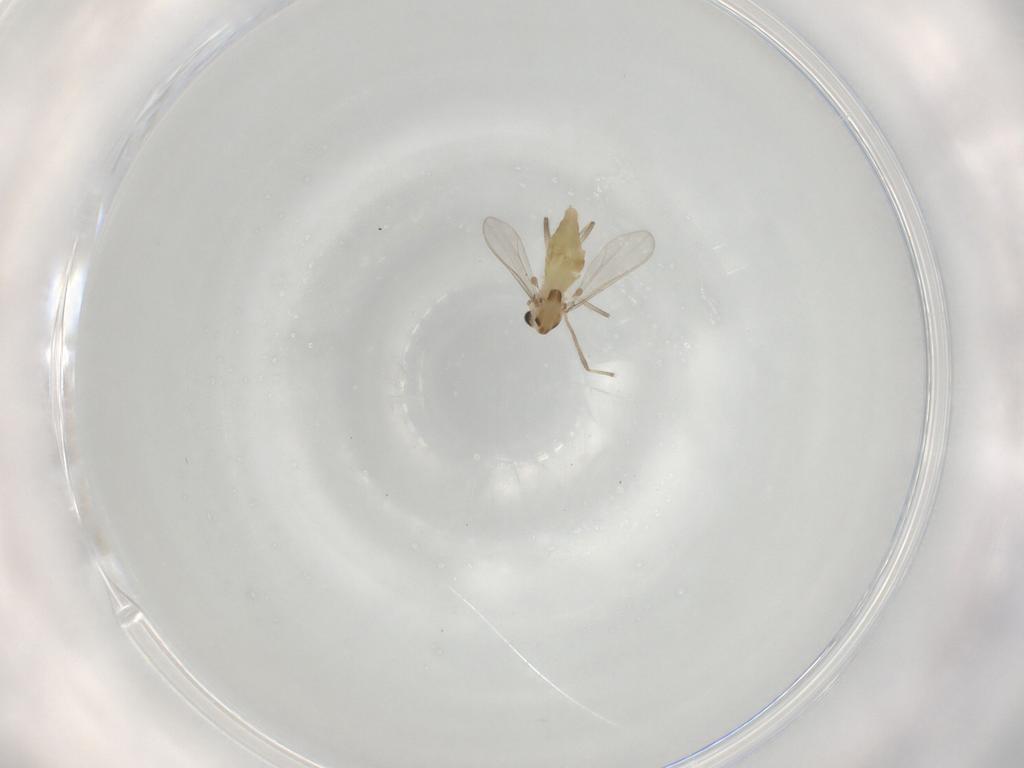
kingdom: Animalia
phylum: Arthropoda
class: Insecta
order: Diptera
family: Chironomidae
